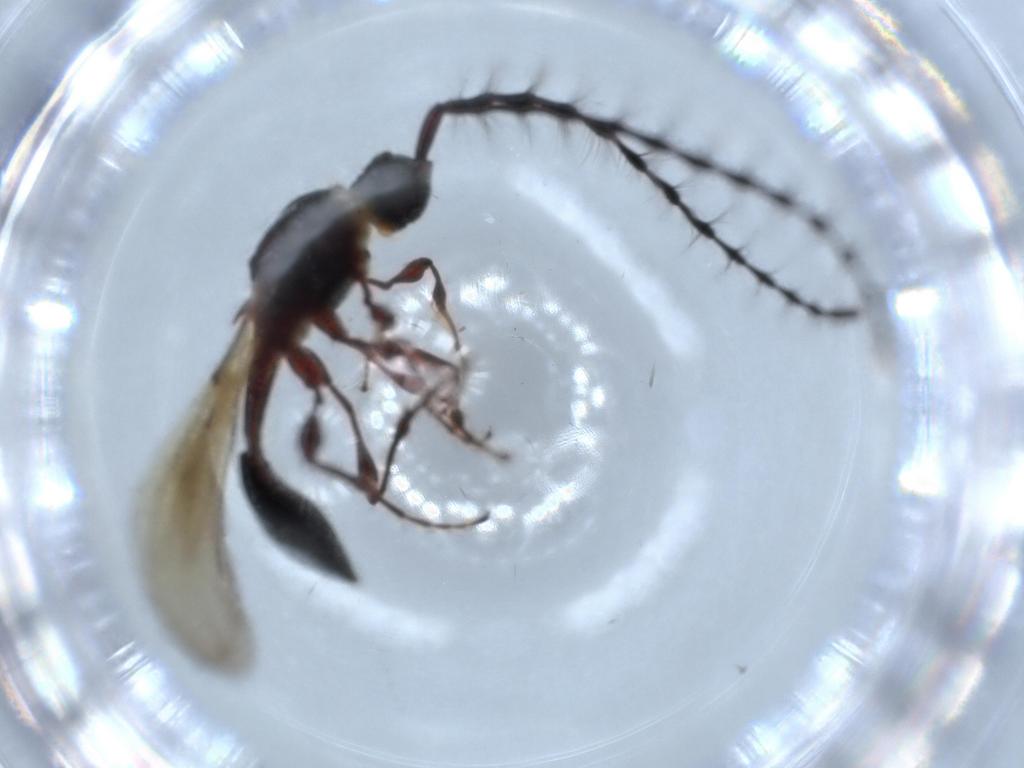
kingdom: Animalia
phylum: Arthropoda
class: Insecta
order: Hymenoptera
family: Diapriidae
